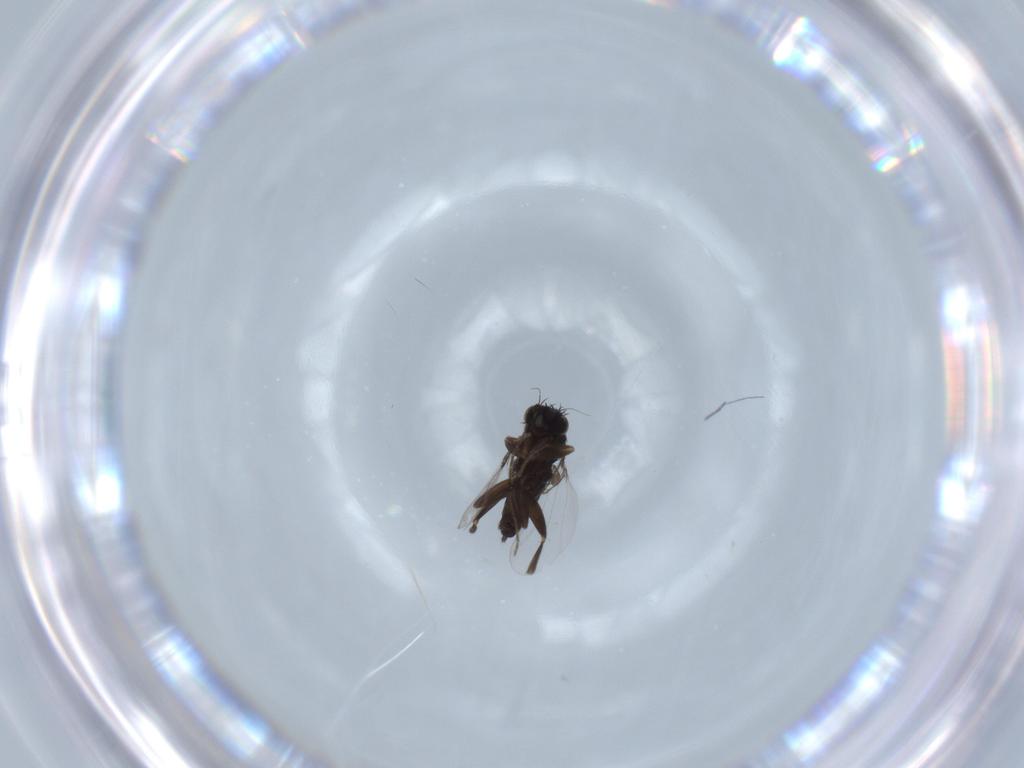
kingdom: Animalia
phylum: Arthropoda
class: Insecta
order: Diptera
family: Phoridae
